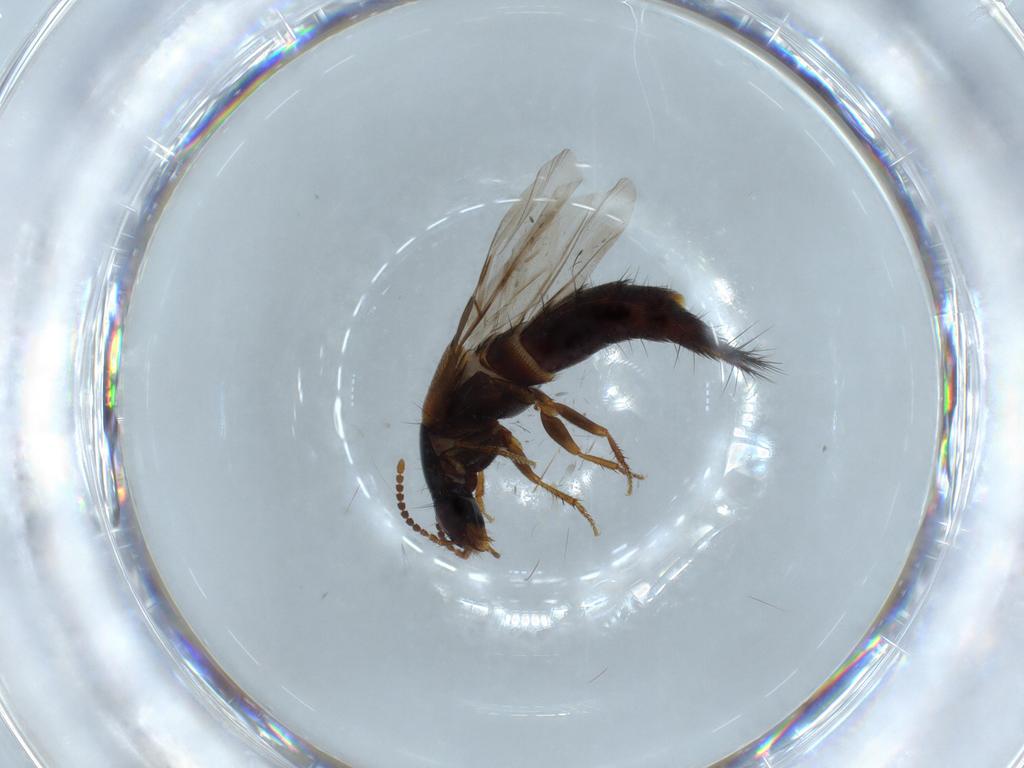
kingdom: Animalia
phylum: Arthropoda
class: Insecta
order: Coleoptera
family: Staphylinidae
